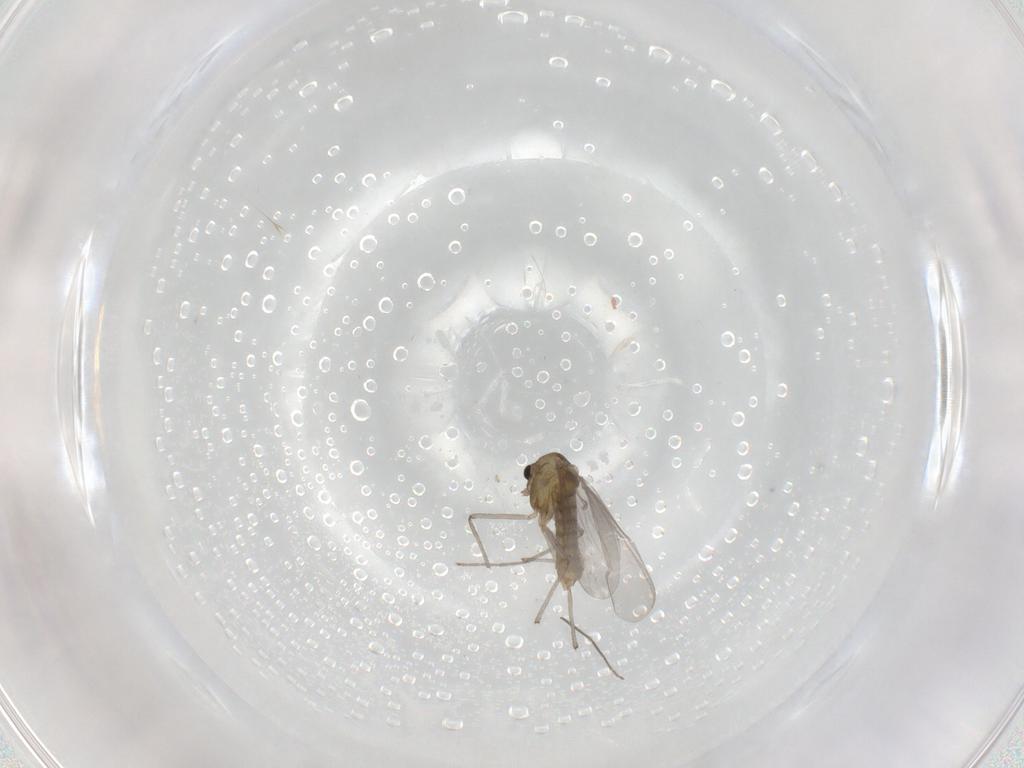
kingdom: Animalia
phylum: Arthropoda
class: Insecta
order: Diptera
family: Chironomidae
